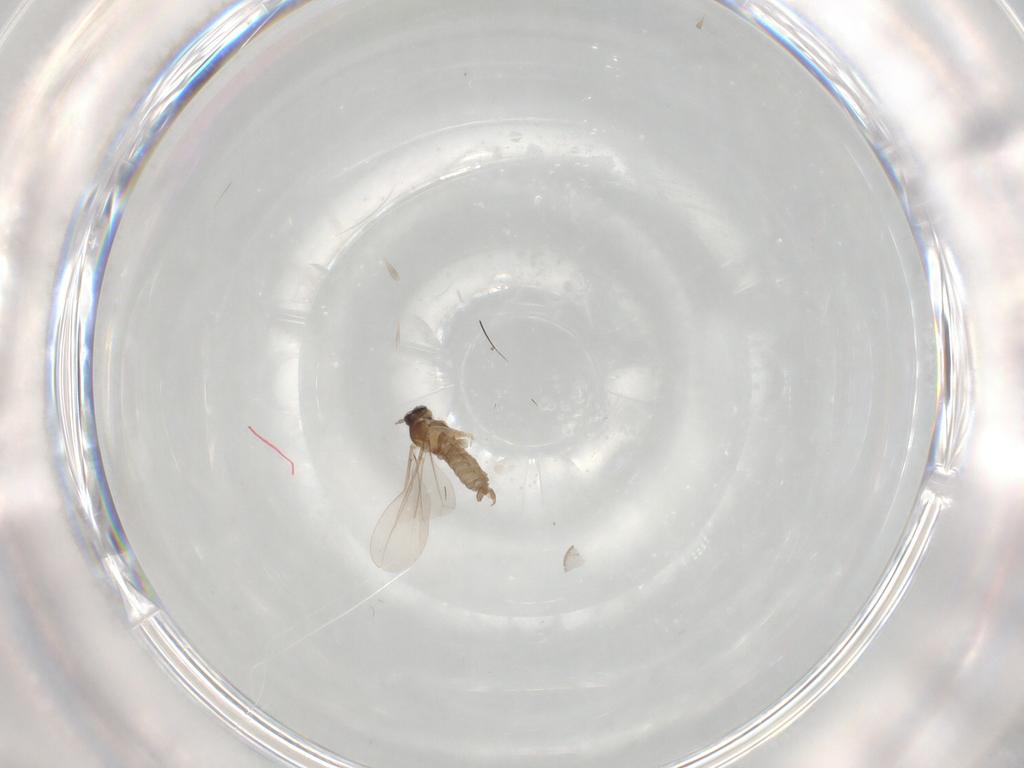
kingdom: Animalia
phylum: Arthropoda
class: Insecta
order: Diptera
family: Cecidomyiidae
